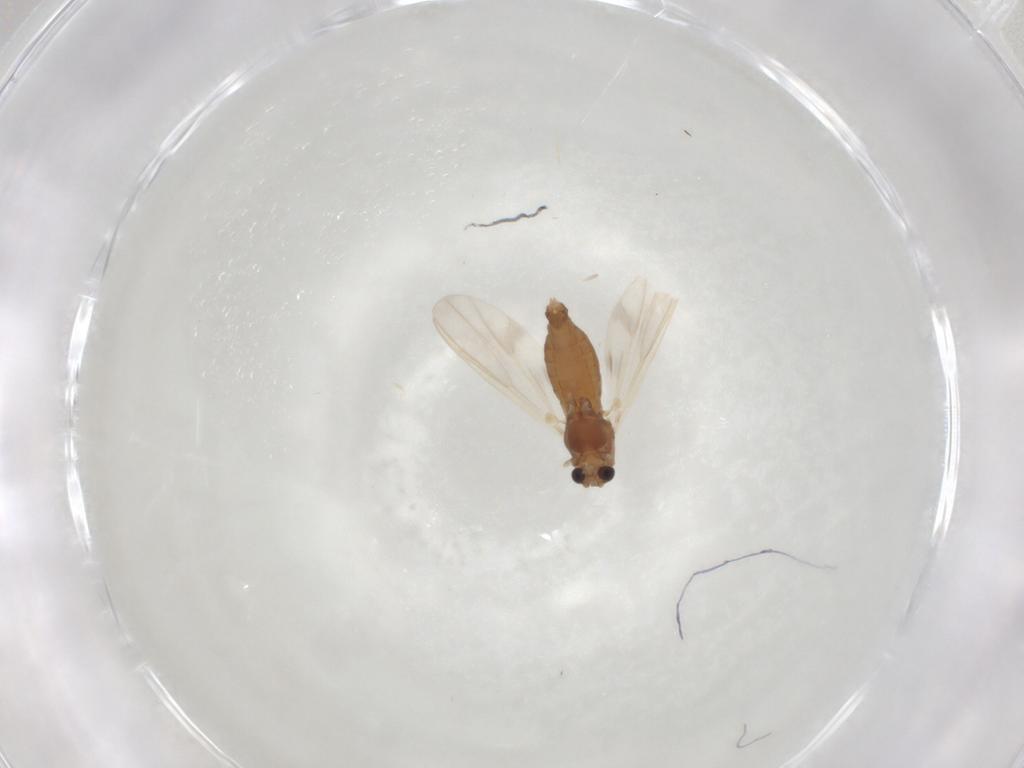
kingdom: Animalia
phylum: Arthropoda
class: Insecta
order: Diptera
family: Chironomidae
